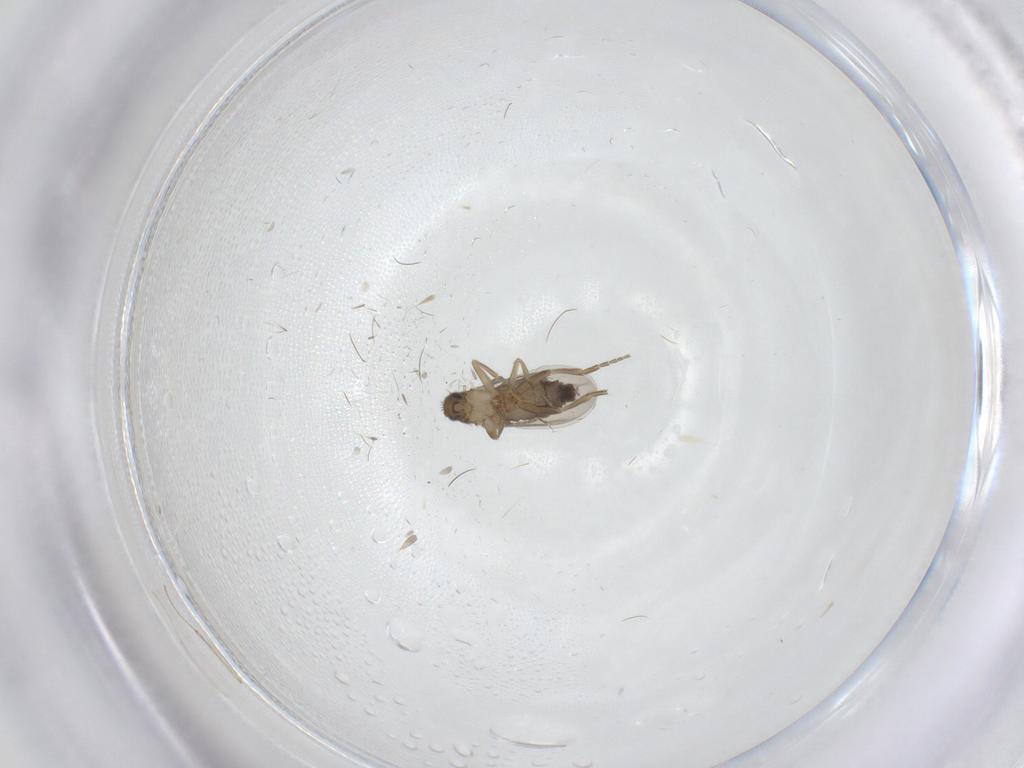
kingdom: Animalia
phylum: Arthropoda
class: Insecta
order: Diptera
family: Phoridae
